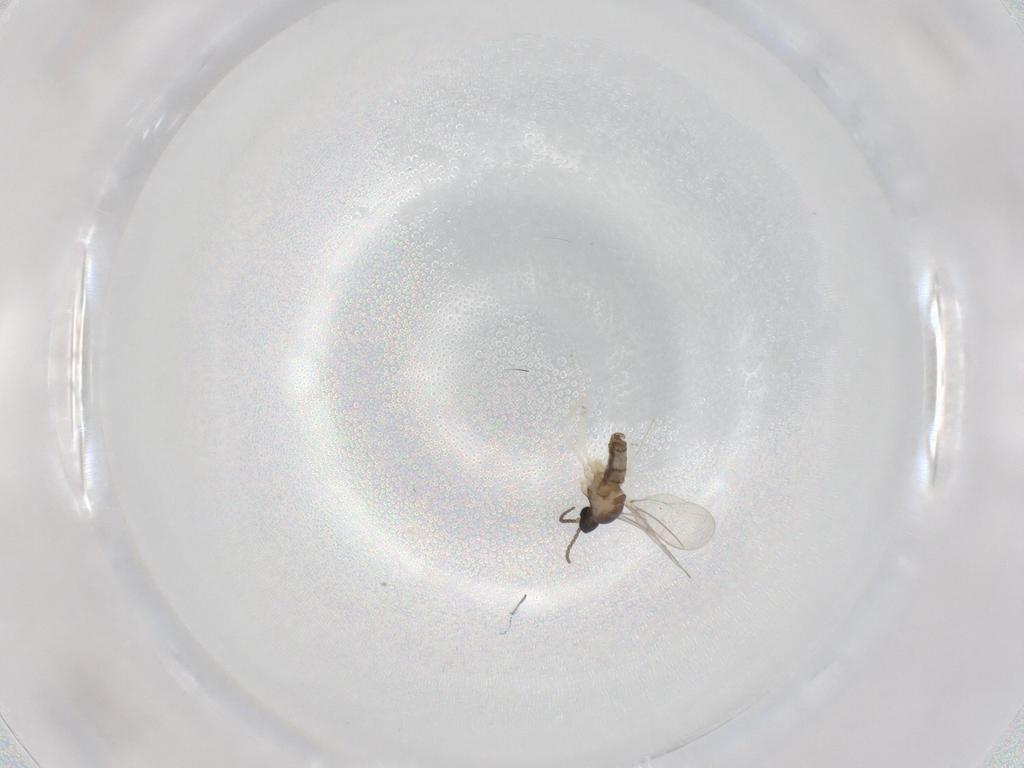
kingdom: Animalia
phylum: Arthropoda
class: Insecta
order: Diptera
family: Cecidomyiidae
